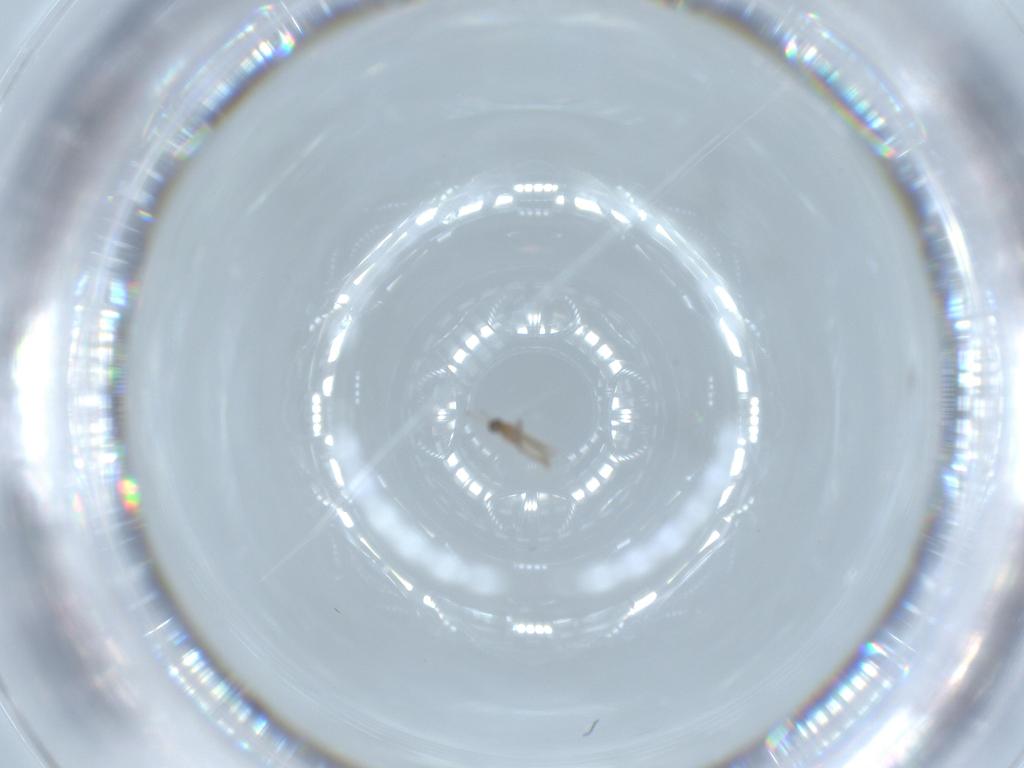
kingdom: Animalia
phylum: Arthropoda
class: Insecta
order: Diptera
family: Cecidomyiidae
